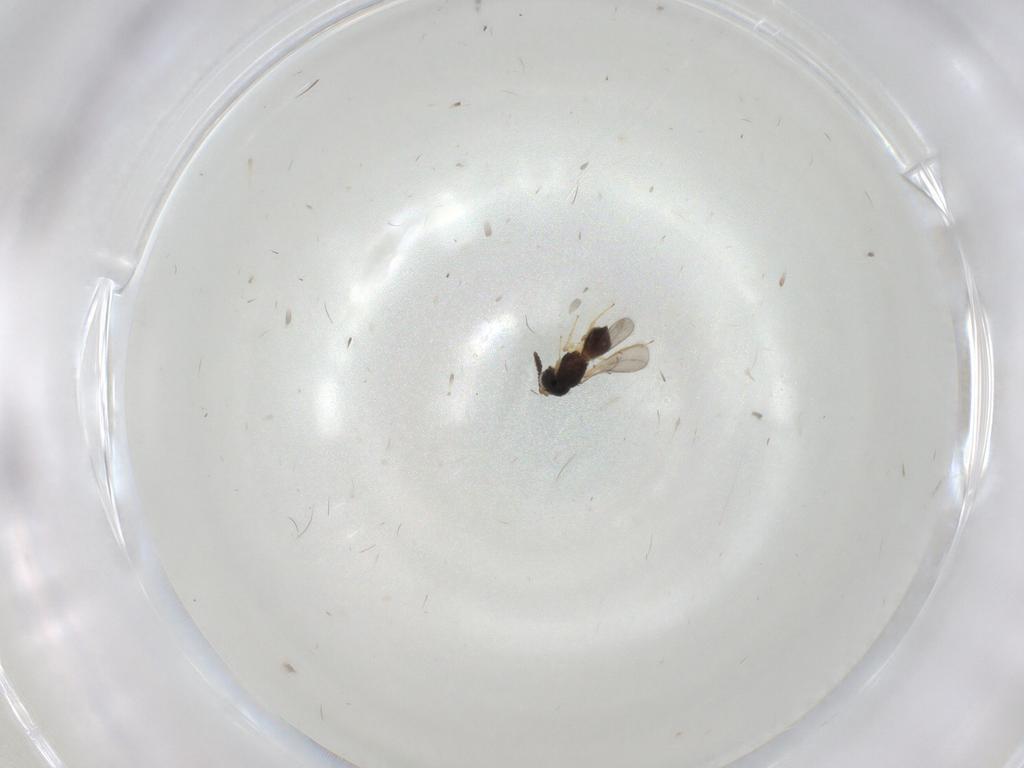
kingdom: Animalia
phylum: Arthropoda
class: Insecta
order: Hymenoptera
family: Scelionidae
